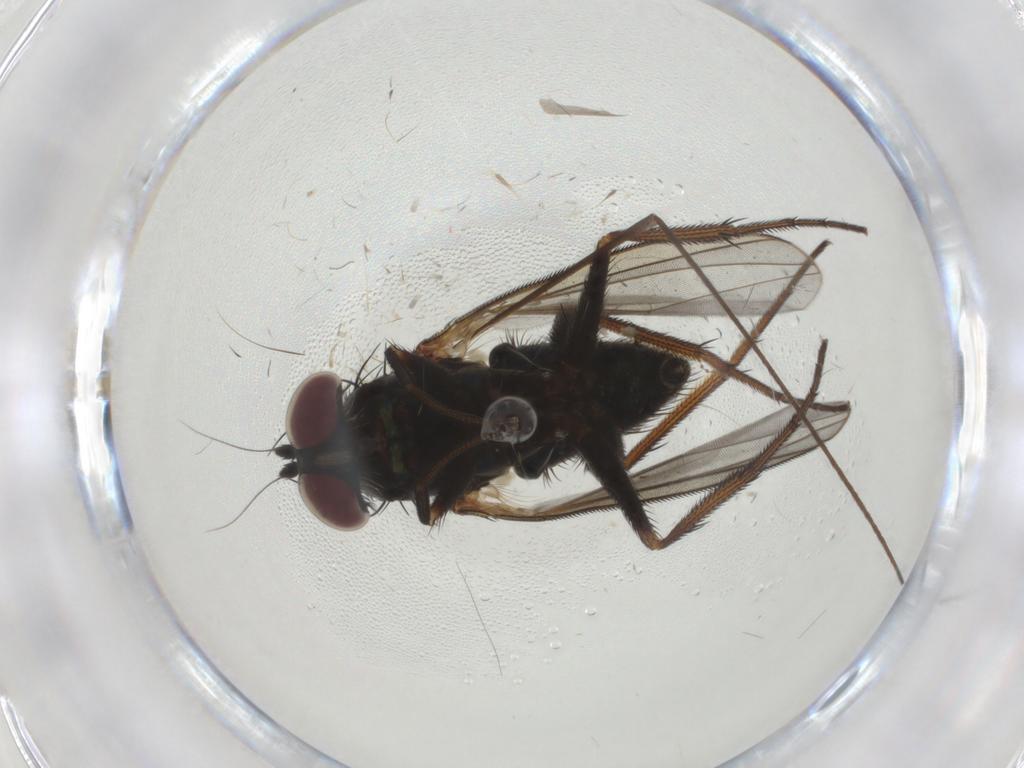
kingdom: Animalia
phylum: Arthropoda
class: Insecta
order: Diptera
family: Dolichopodidae
